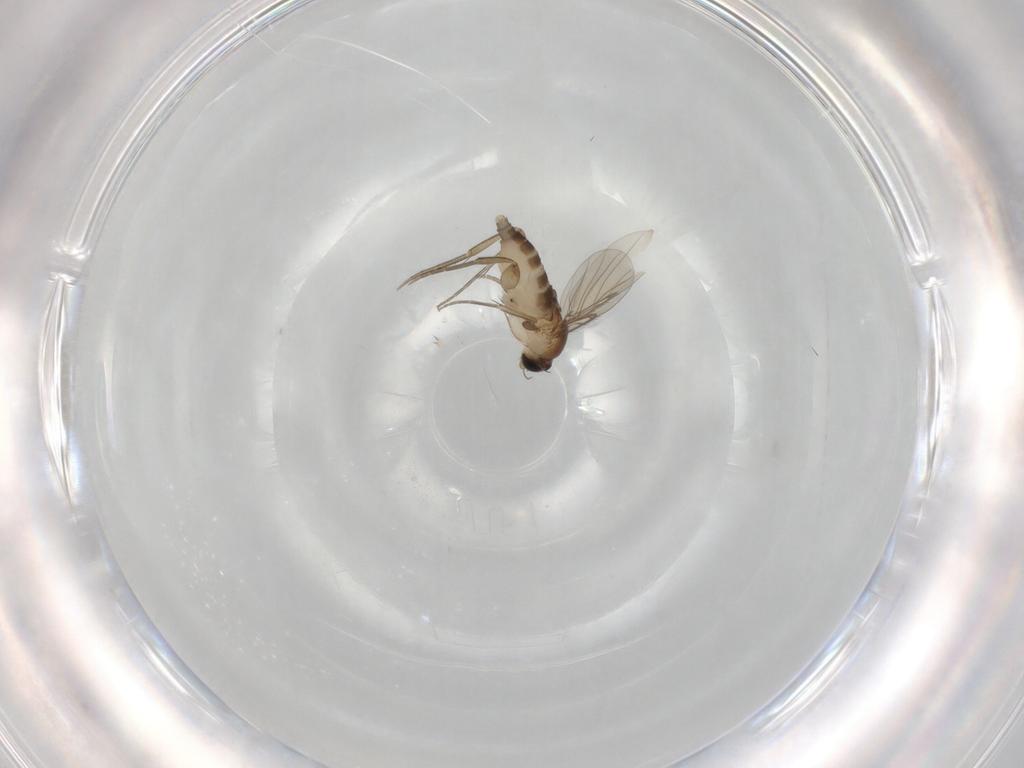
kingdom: Animalia
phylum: Arthropoda
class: Insecta
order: Diptera
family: Phoridae
